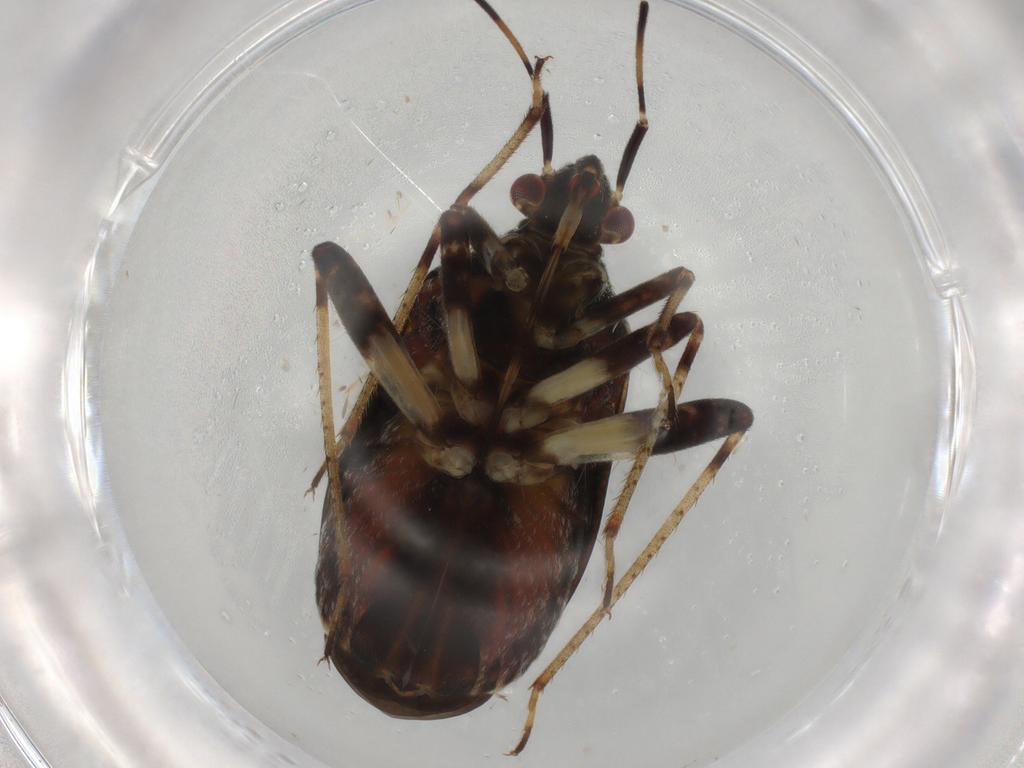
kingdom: Animalia
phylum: Arthropoda
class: Insecta
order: Hemiptera
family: Miridae
